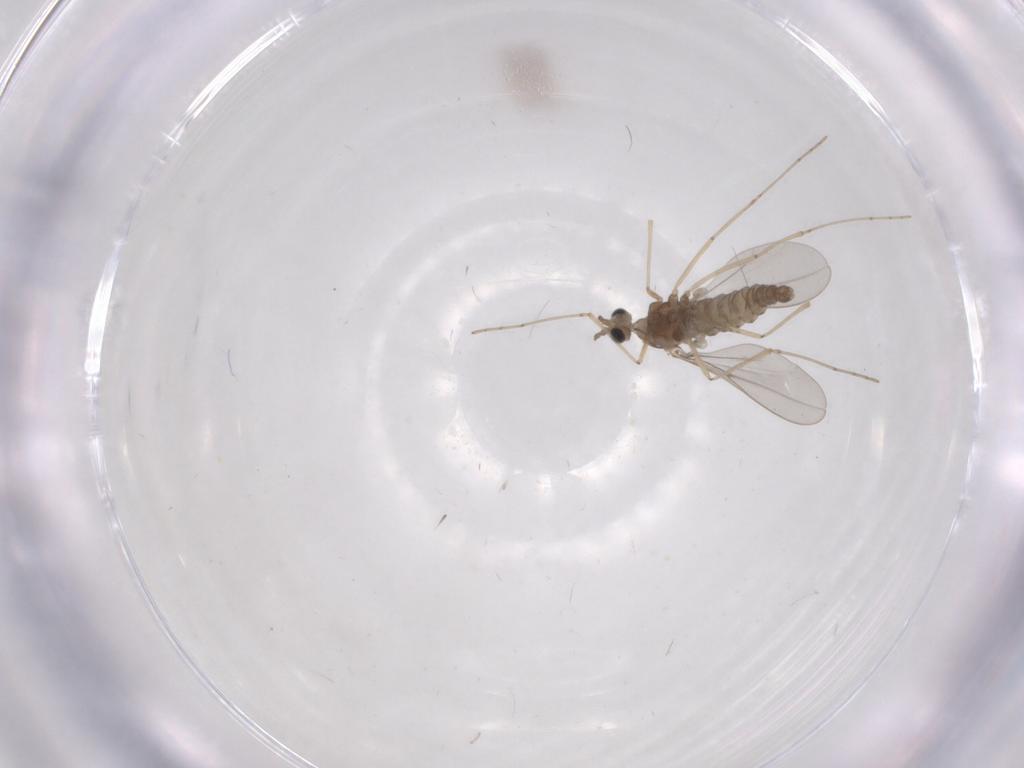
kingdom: Animalia
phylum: Arthropoda
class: Insecta
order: Diptera
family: Cecidomyiidae
